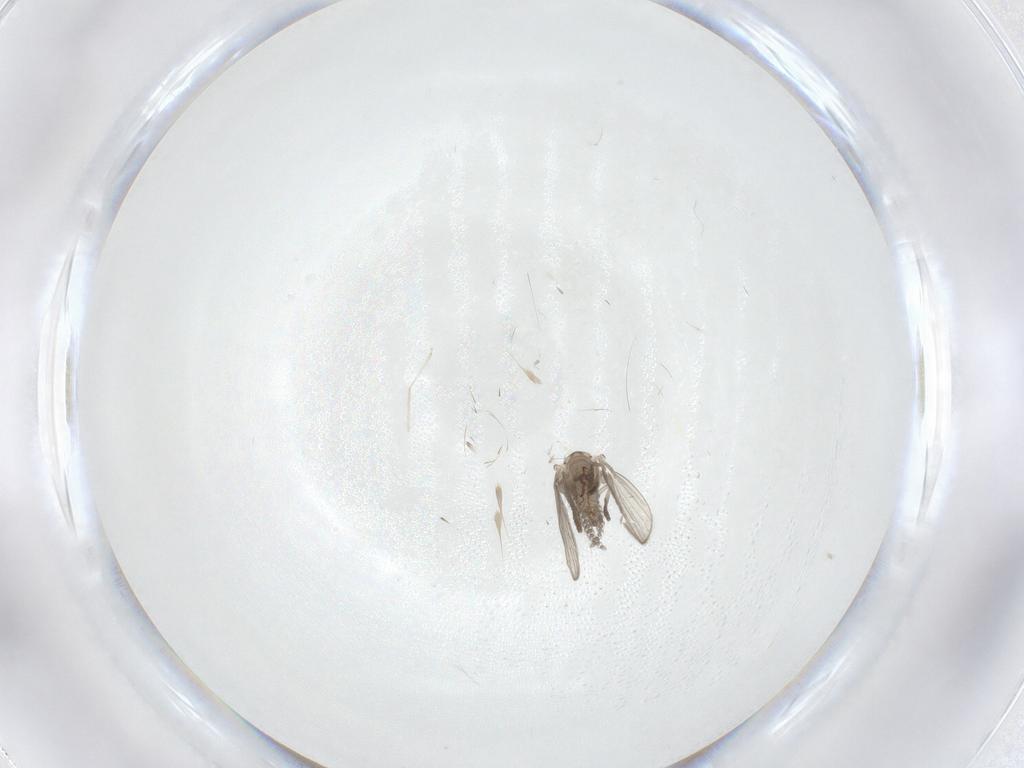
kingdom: Animalia
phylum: Arthropoda
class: Insecta
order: Diptera
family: Psychodidae
